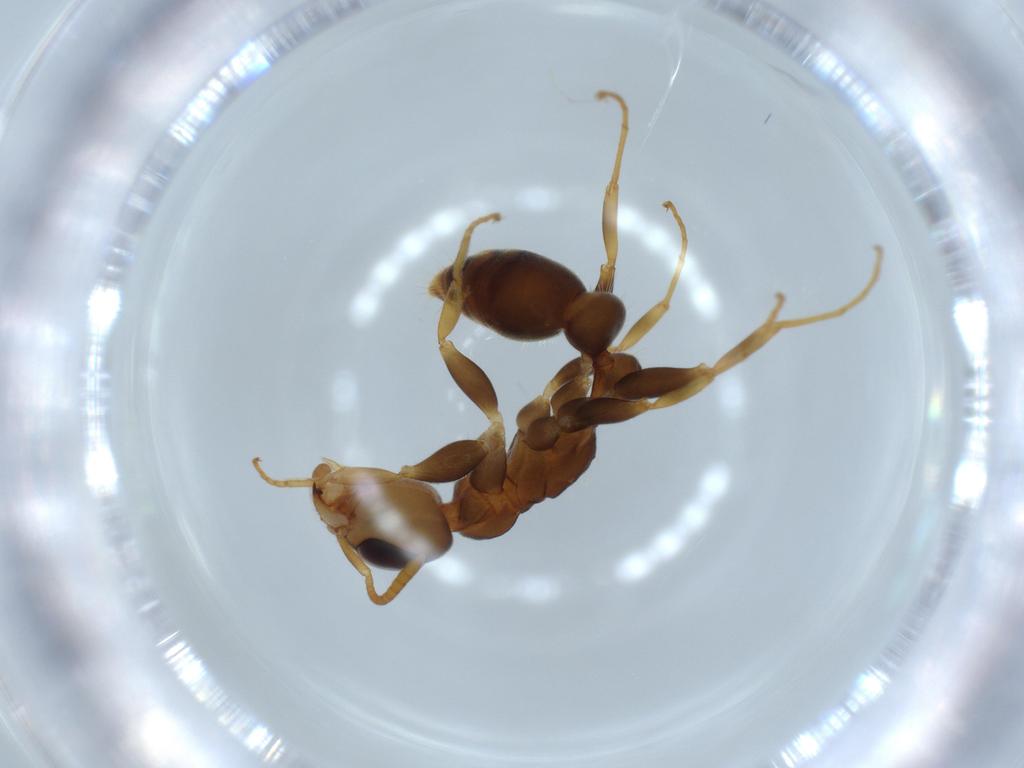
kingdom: Animalia
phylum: Arthropoda
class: Insecta
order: Hymenoptera
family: Formicidae
